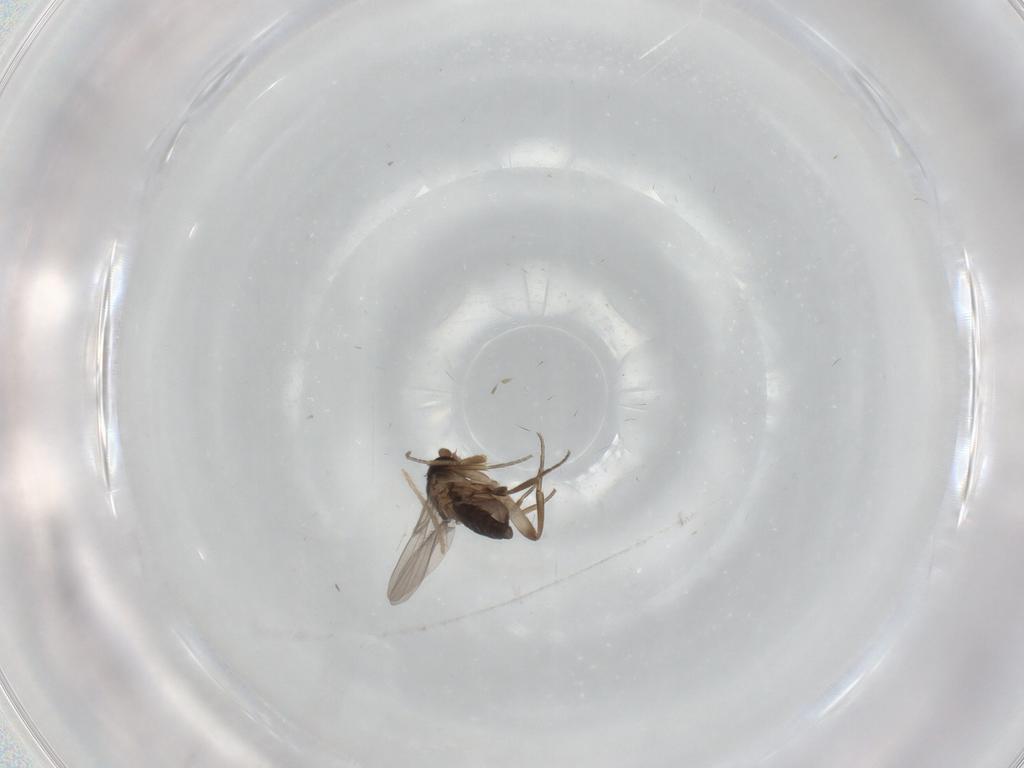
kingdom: Animalia
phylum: Arthropoda
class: Insecta
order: Diptera
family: Phoridae
